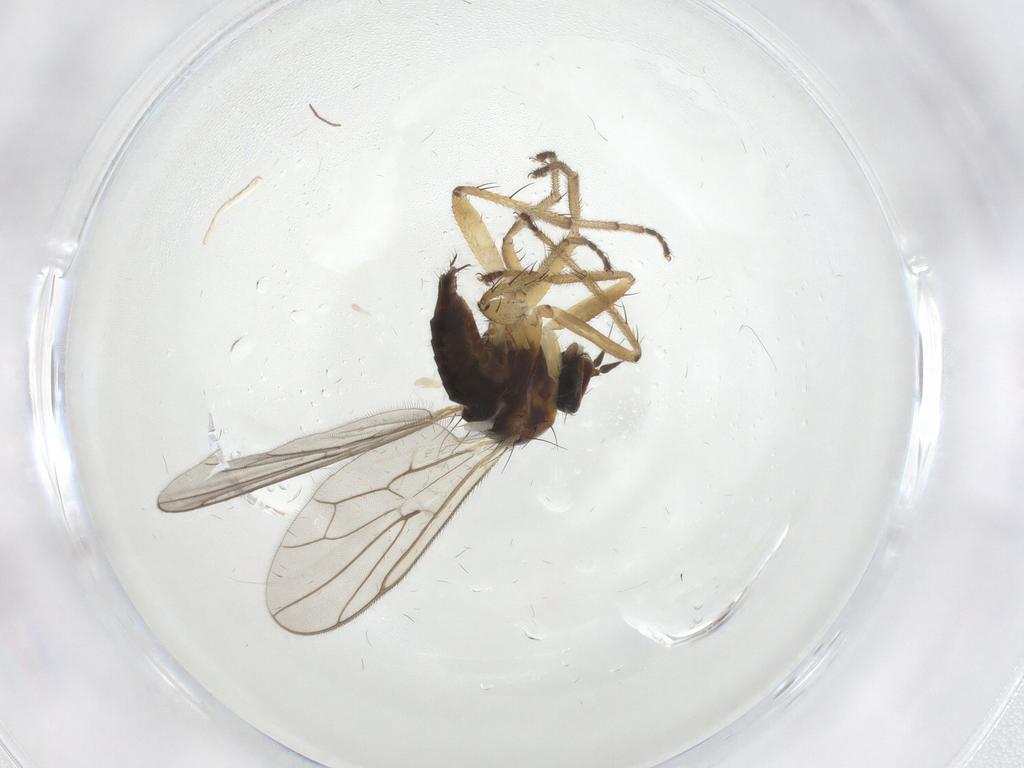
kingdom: Animalia
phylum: Arthropoda
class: Insecta
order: Diptera
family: Hybotidae
